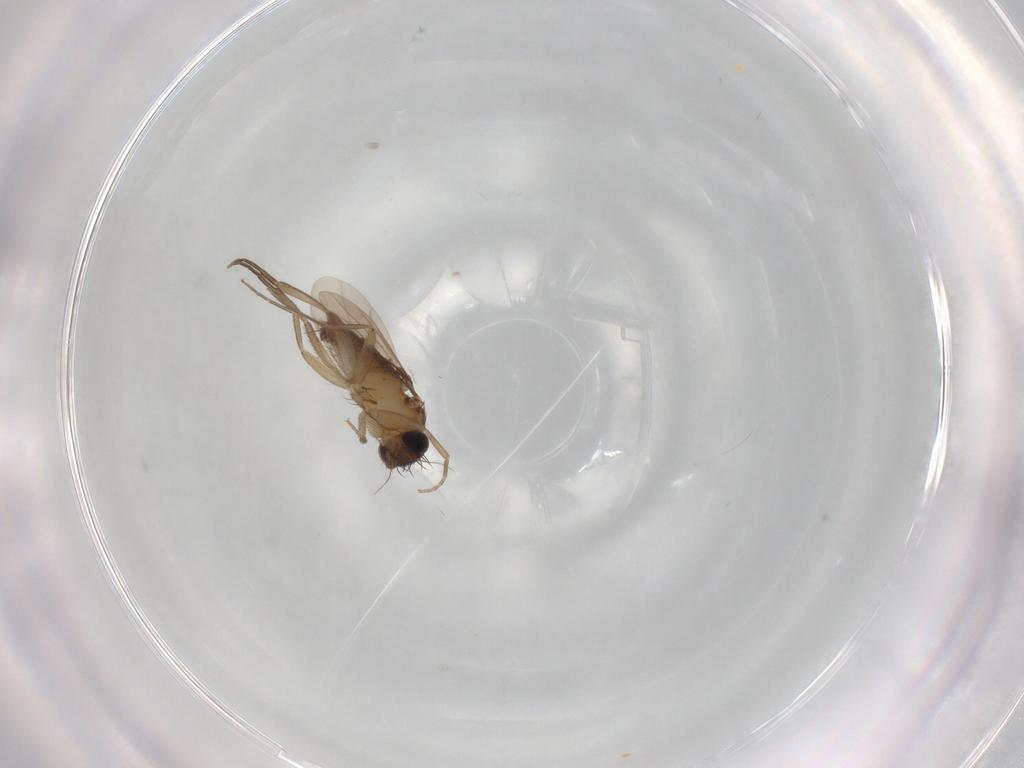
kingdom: Animalia
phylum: Arthropoda
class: Insecta
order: Diptera
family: Phoridae
